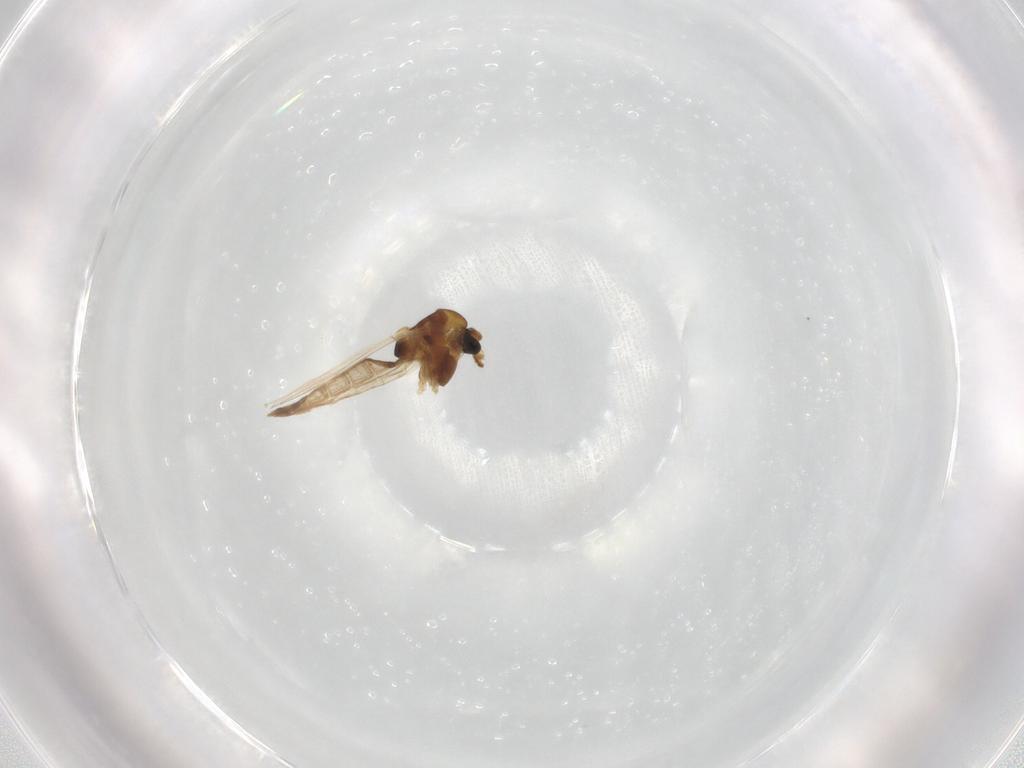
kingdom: Animalia
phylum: Arthropoda
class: Insecta
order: Diptera
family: Chironomidae
